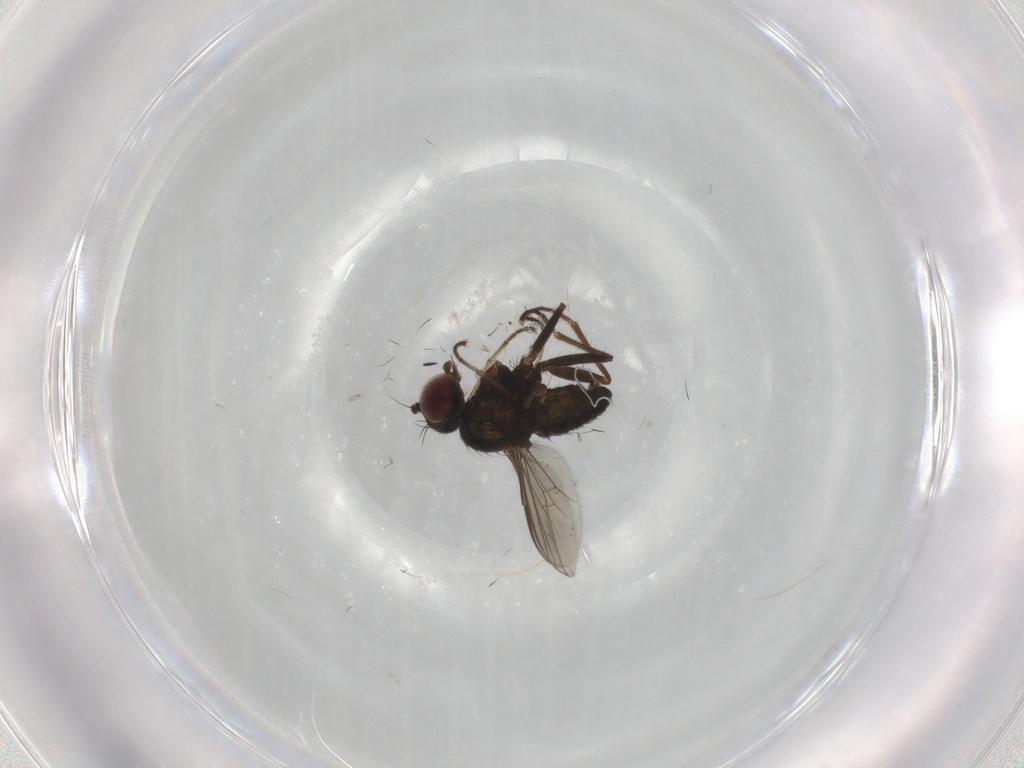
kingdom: Animalia
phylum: Arthropoda
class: Insecta
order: Diptera
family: Dolichopodidae
